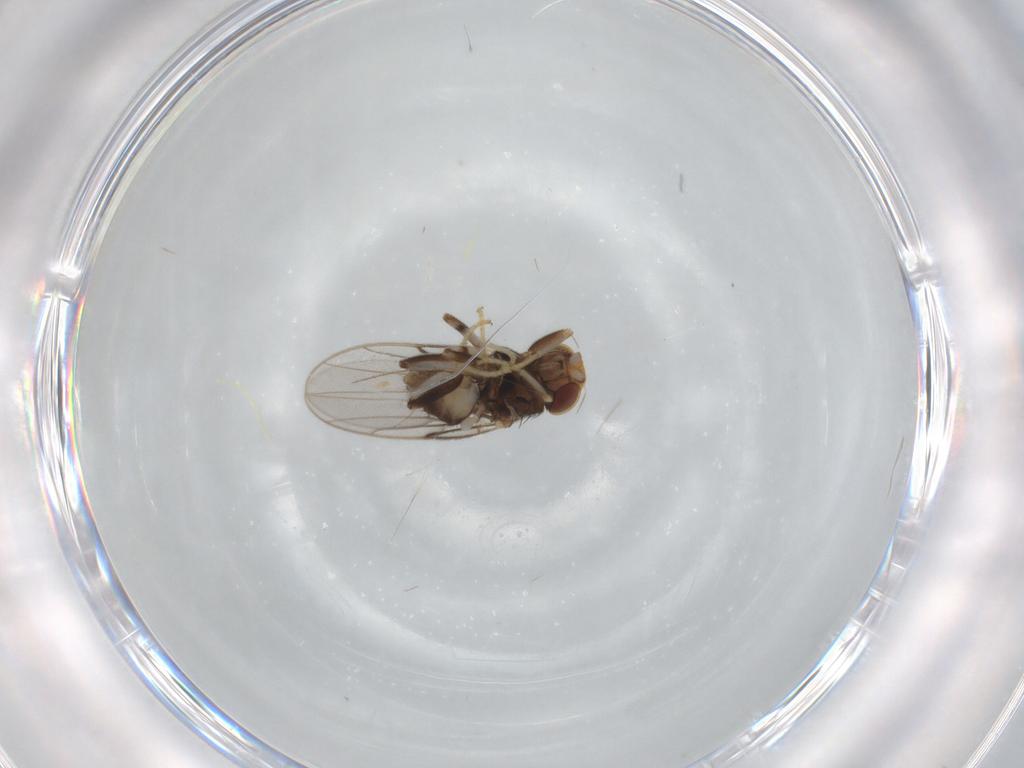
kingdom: Animalia
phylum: Arthropoda
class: Insecta
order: Diptera
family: Chloropidae
